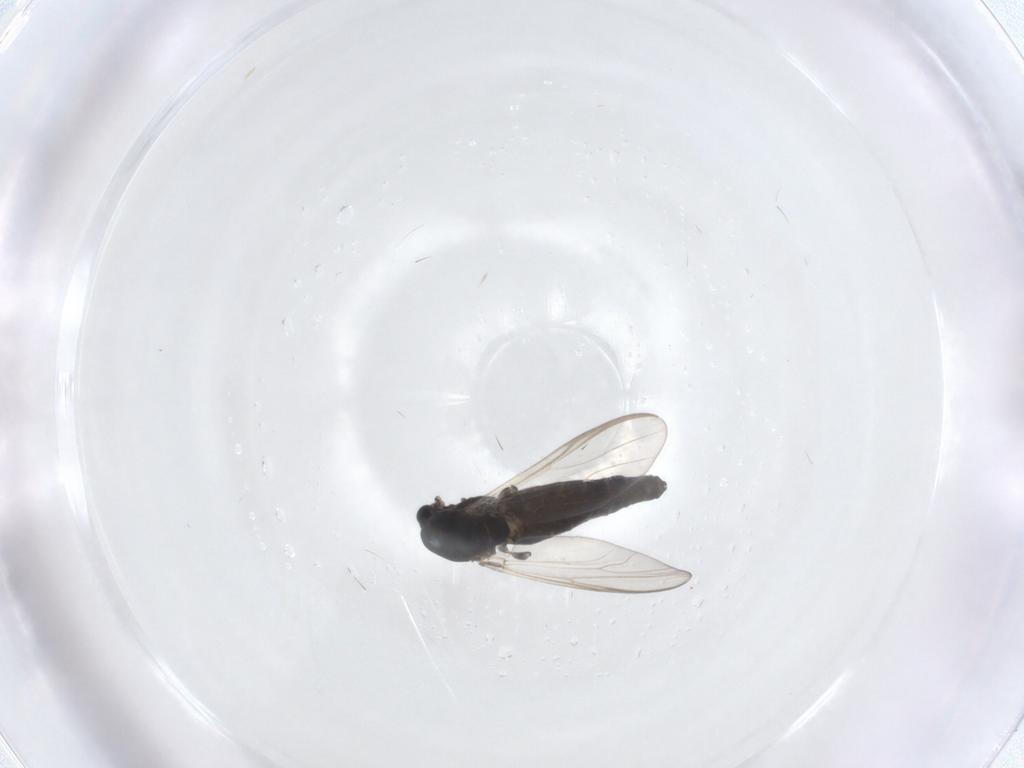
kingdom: Animalia
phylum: Arthropoda
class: Insecta
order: Diptera
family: Chironomidae
